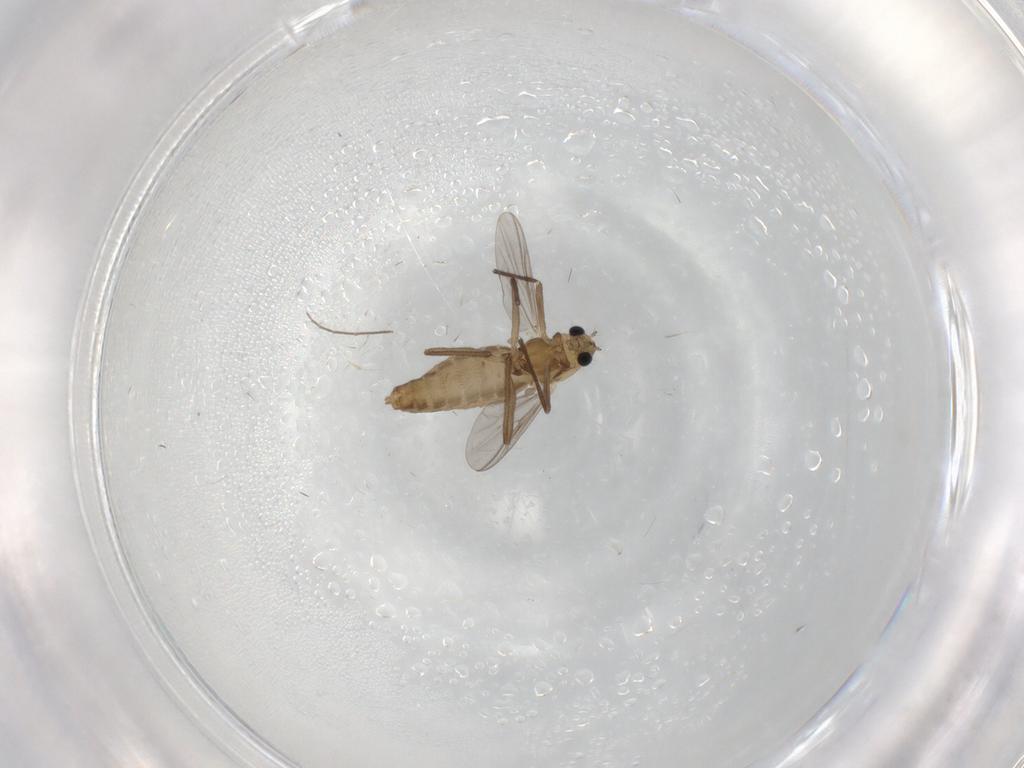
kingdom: Animalia
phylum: Arthropoda
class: Insecta
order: Diptera
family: Chironomidae
